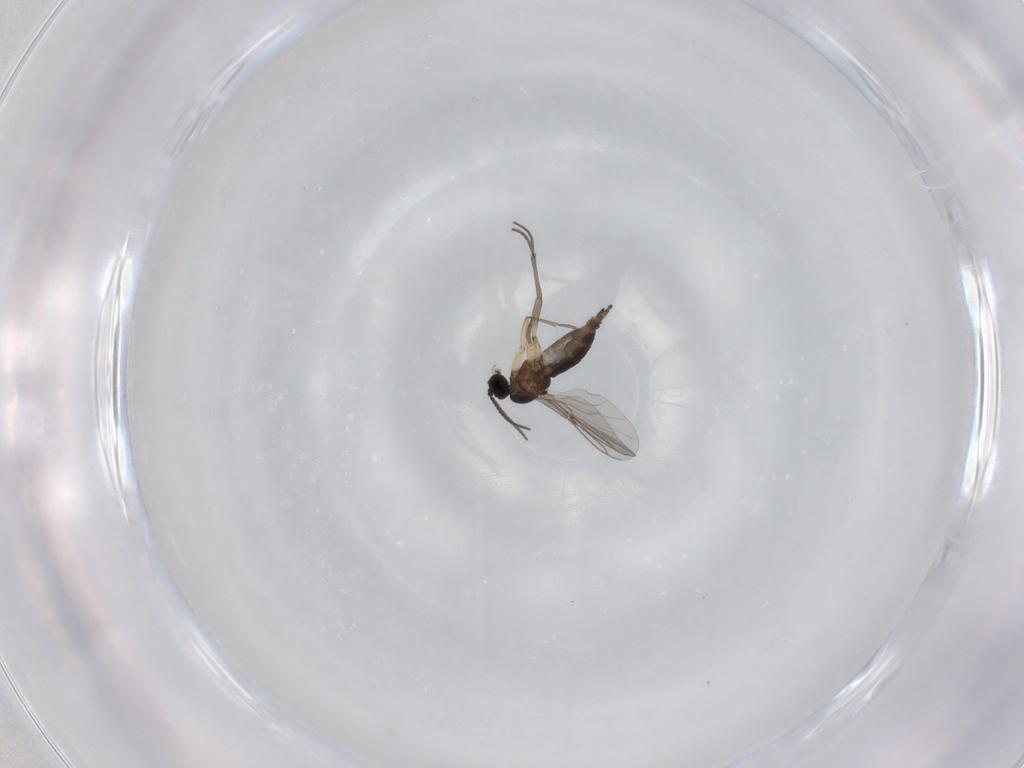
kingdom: Animalia
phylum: Arthropoda
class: Insecta
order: Diptera
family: Sciaridae
